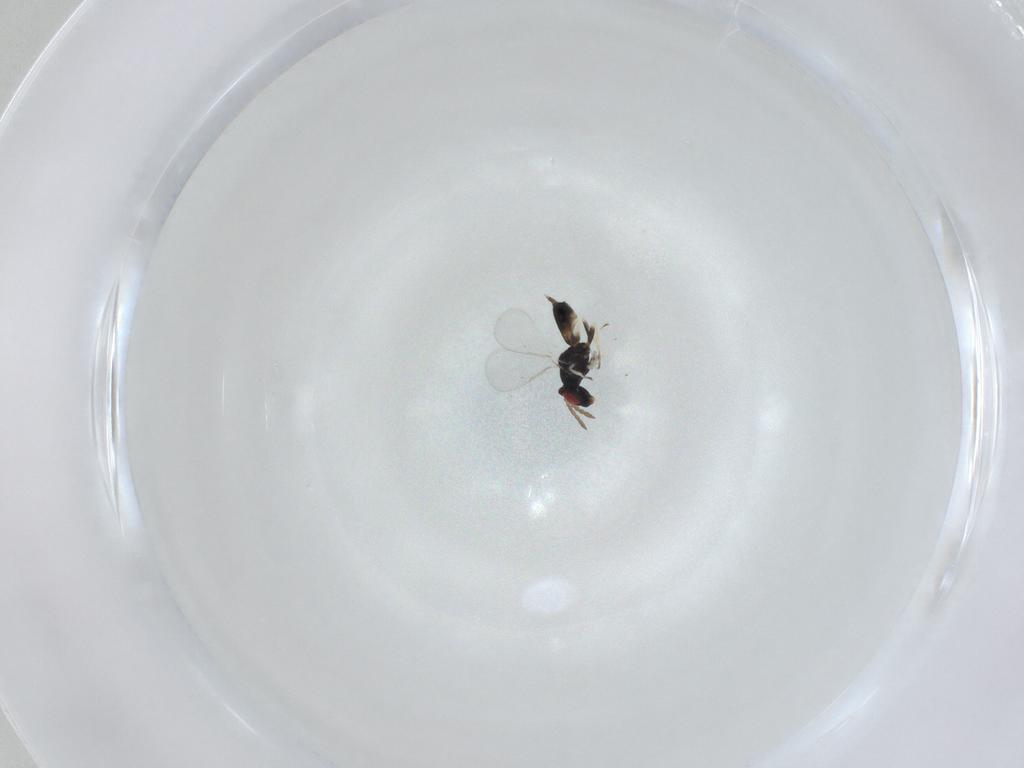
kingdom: Animalia
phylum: Arthropoda
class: Insecta
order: Hymenoptera
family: Eulophidae
